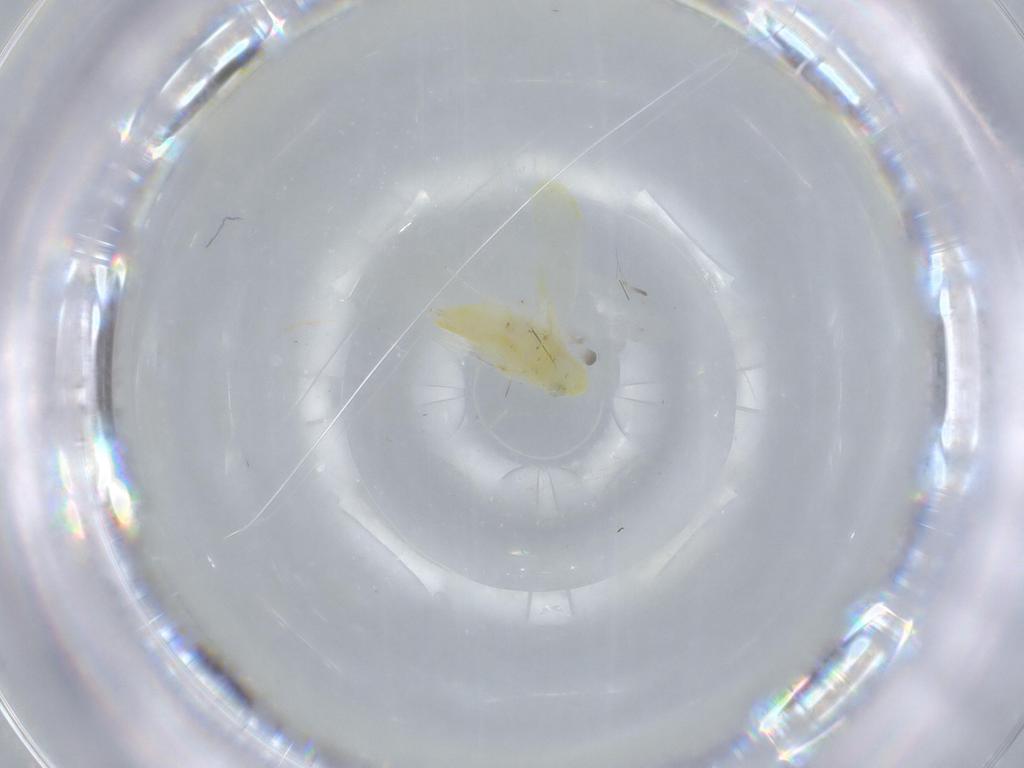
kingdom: Animalia
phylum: Arthropoda
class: Insecta
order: Hemiptera
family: Cicadellidae
